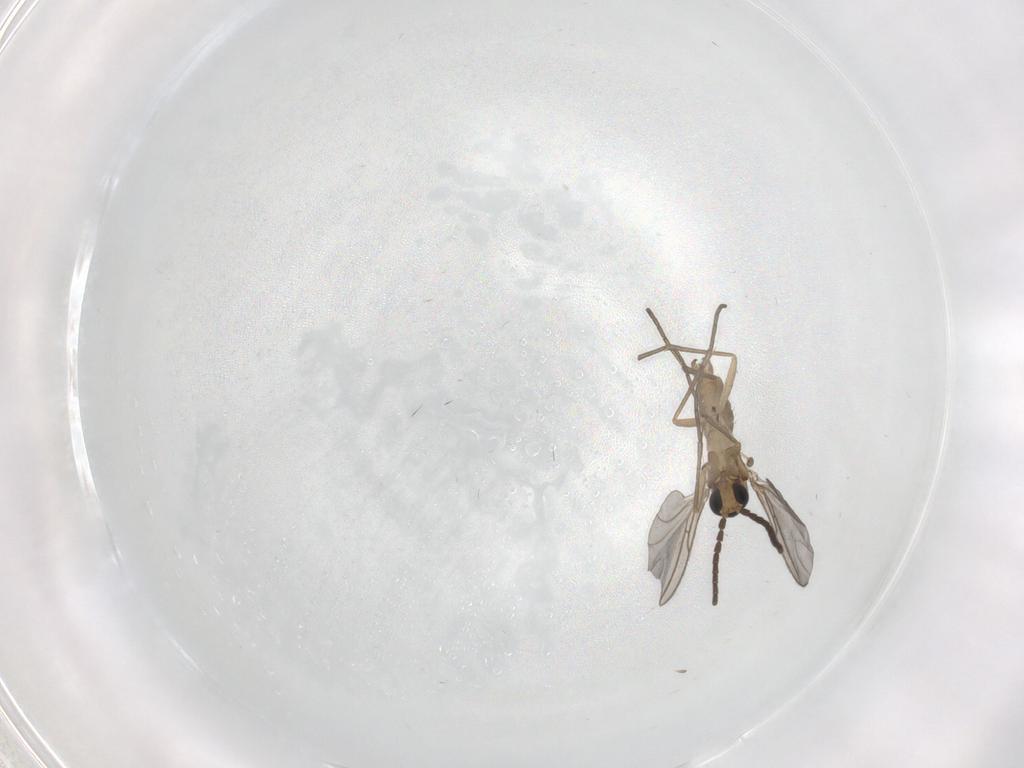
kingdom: Animalia
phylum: Arthropoda
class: Insecta
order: Diptera
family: Sciaridae
